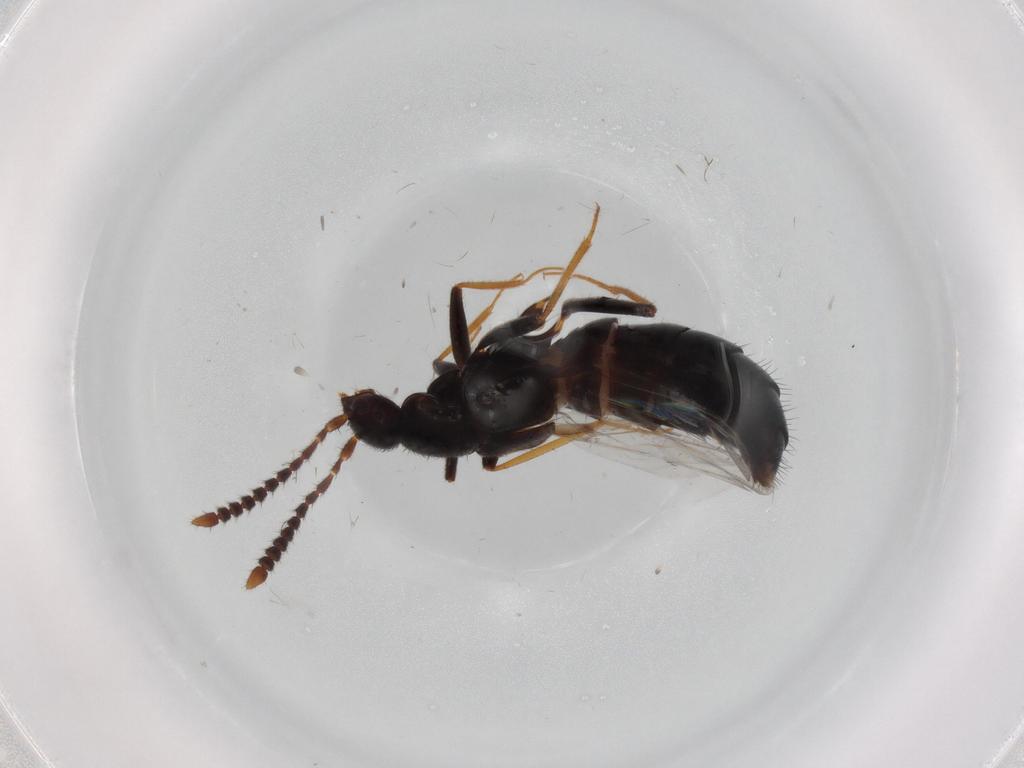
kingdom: Animalia
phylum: Arthropoda
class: Insecta
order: Coleoptera
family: Staphylinidae
